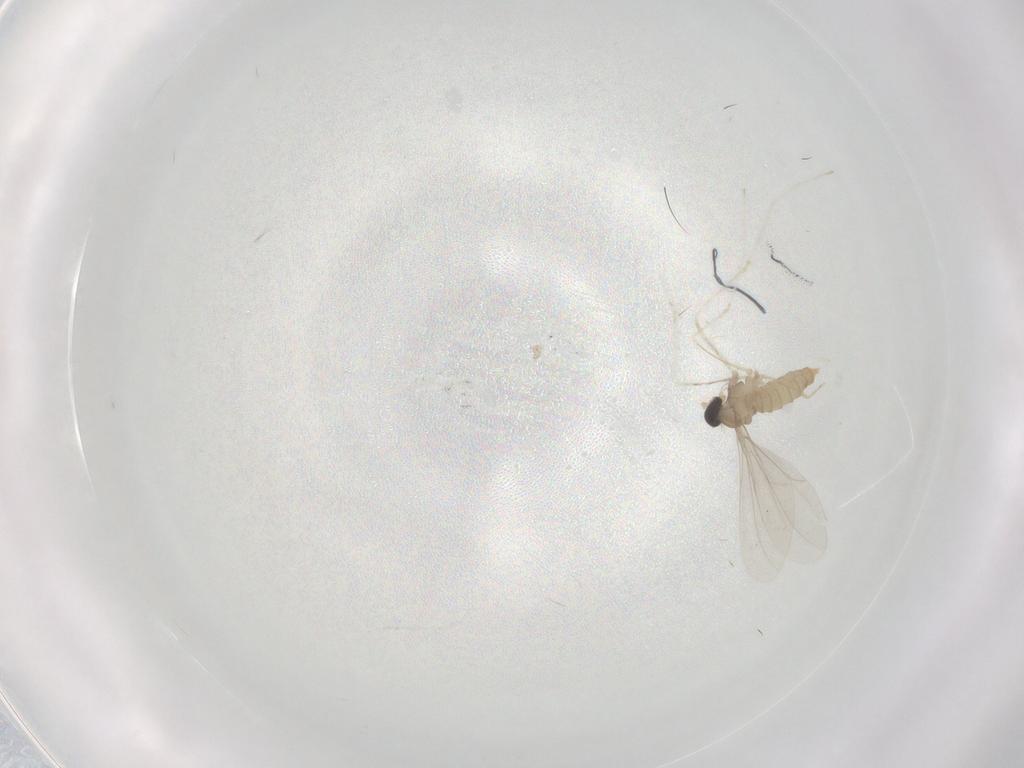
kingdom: Animalia
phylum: Arthropoda
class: Insecta
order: Diptera
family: Cecidomyiidae
